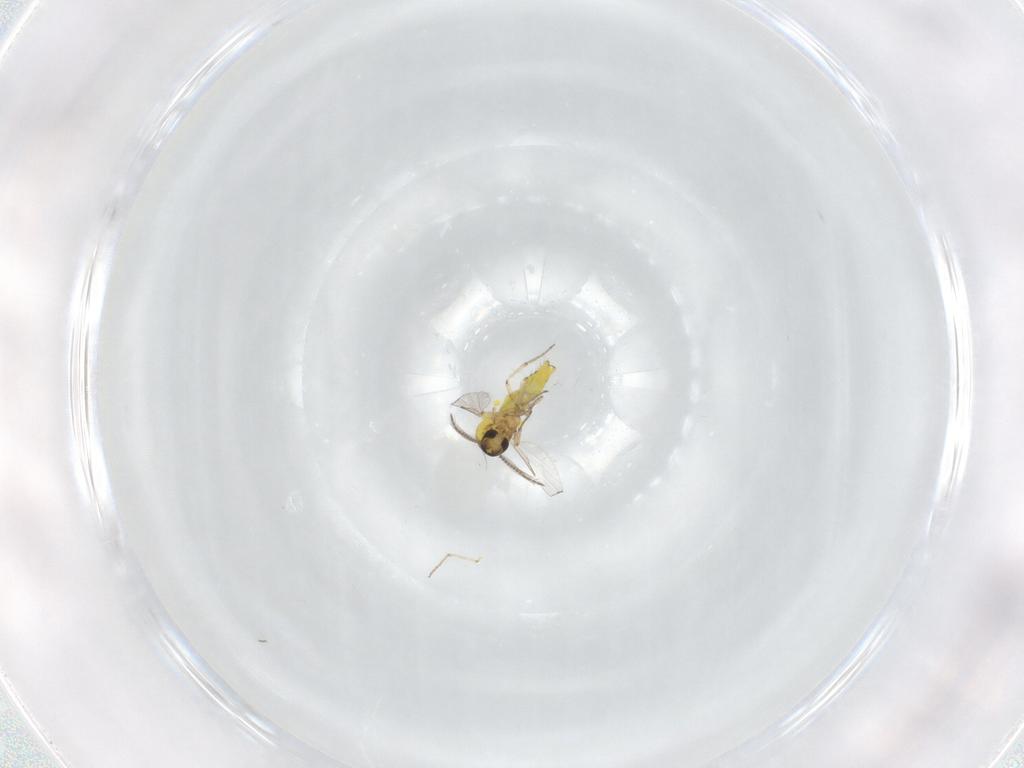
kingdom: Animalia
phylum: Arthropoda
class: Insecta
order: Diptera
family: Ceratopogonidae
